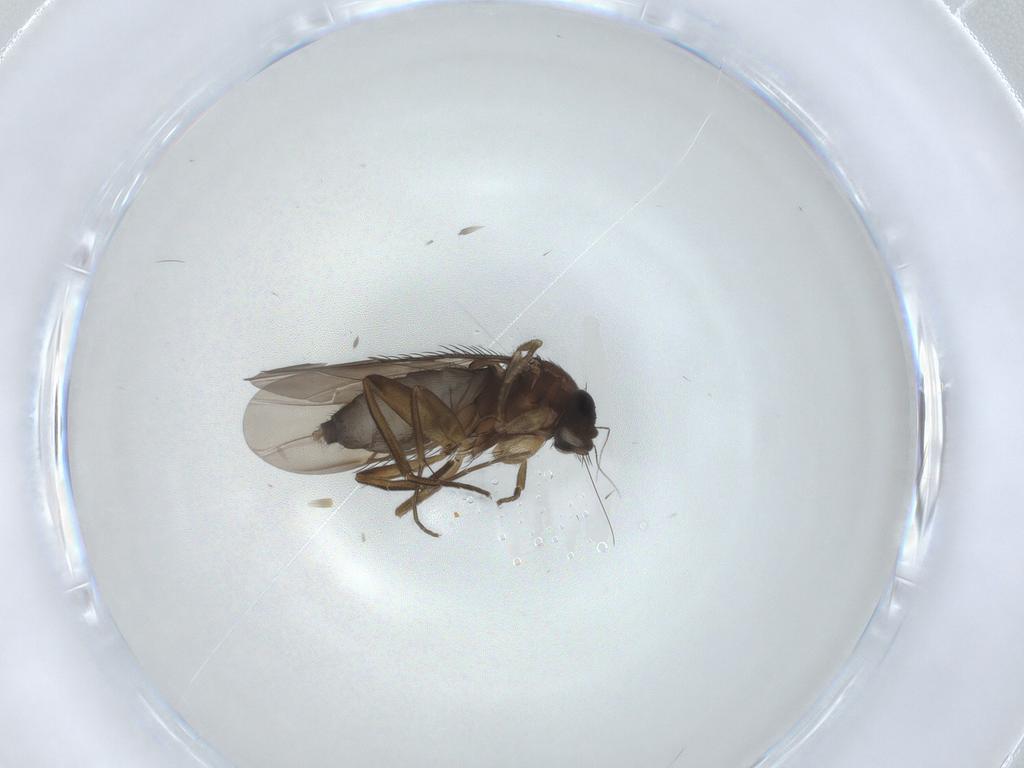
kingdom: Animalia
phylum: Arthropoda
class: Insecta
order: Diptera
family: Phoridae
